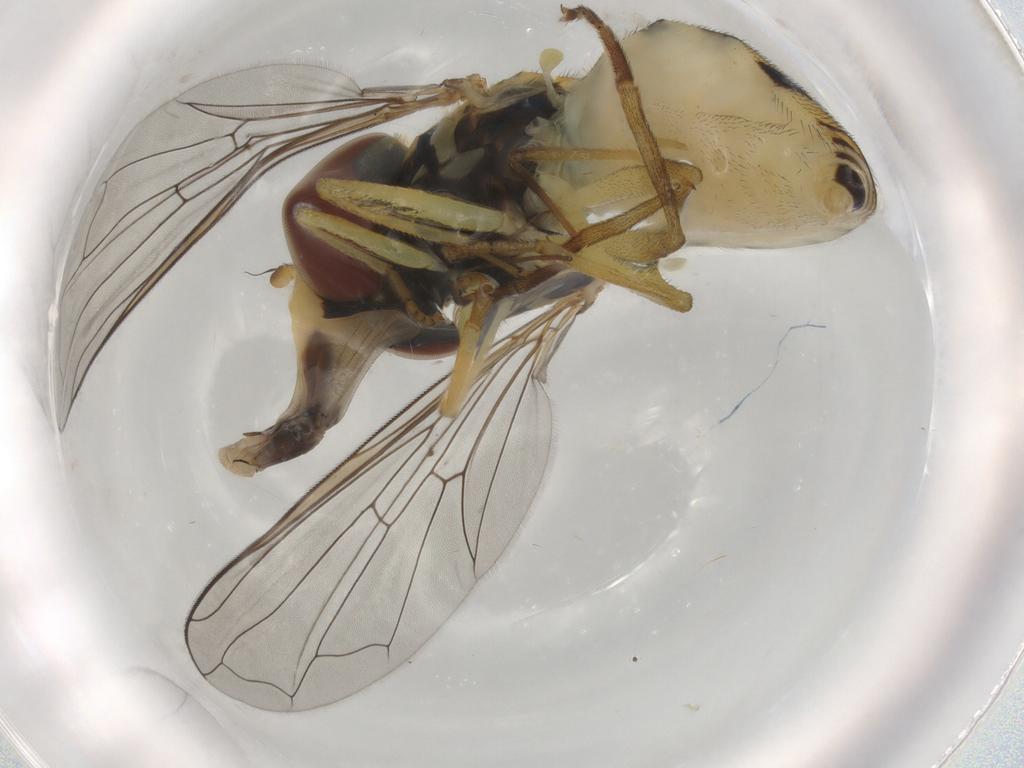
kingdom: Animalia
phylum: Arthropoda
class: Insecta
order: Diptera
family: Syrphidae
